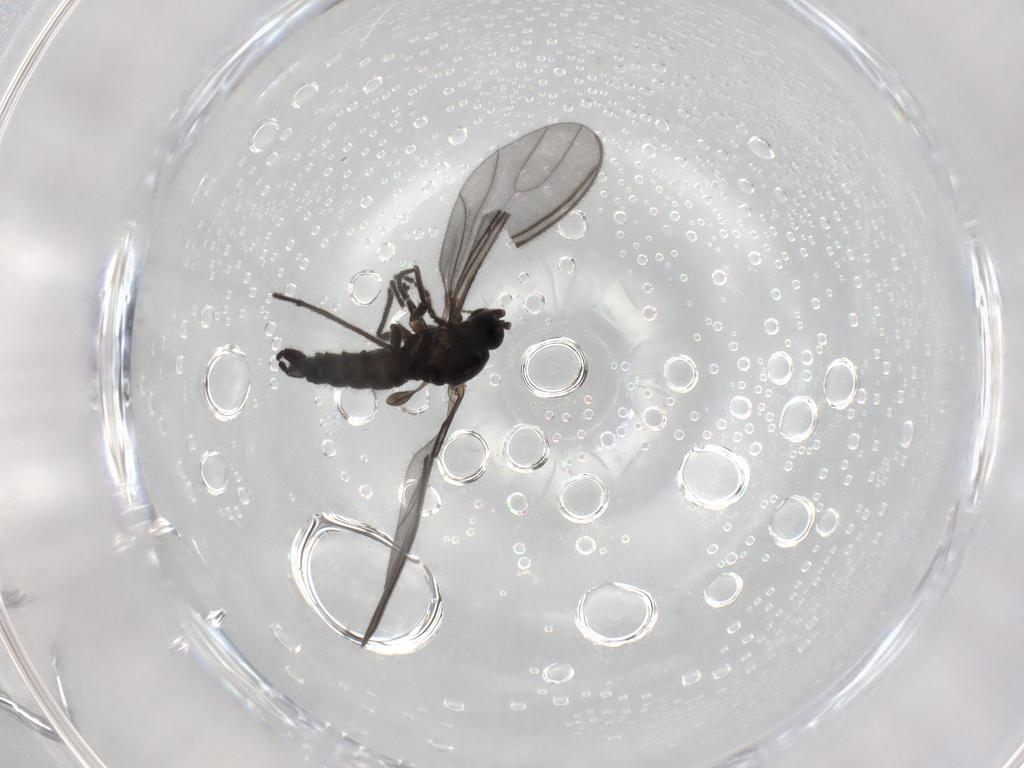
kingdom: Animalia
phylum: Arthropoda
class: Insecta
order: Diptera
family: Sciaridae
